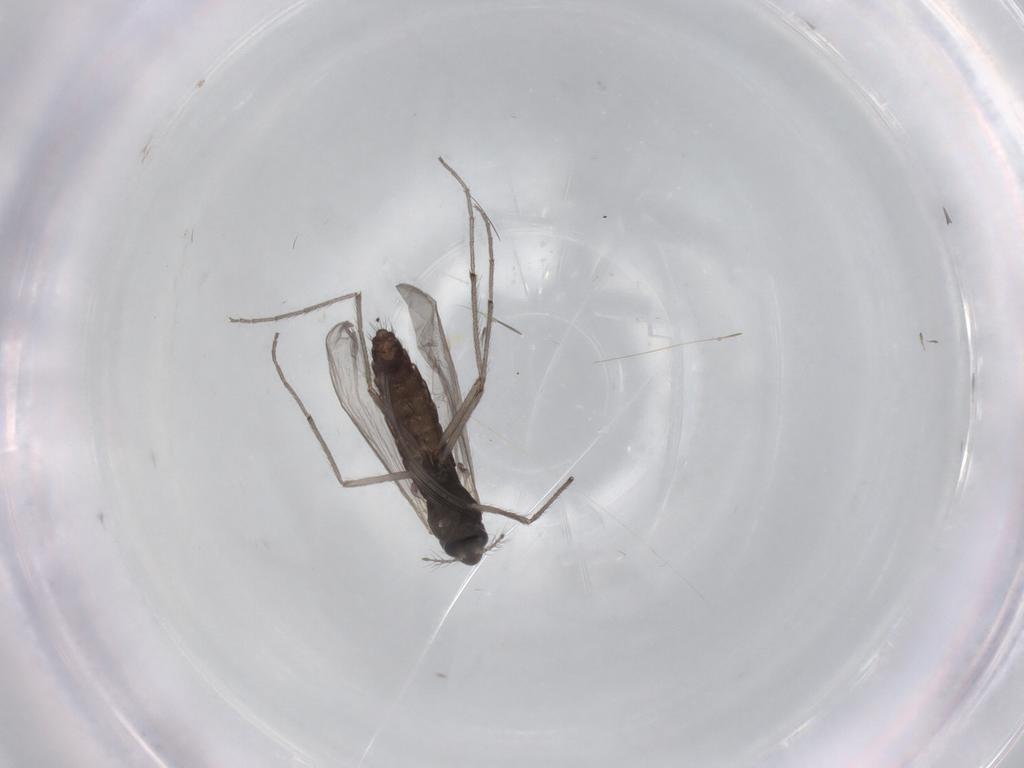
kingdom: Animalia
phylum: Arthropoda
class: Insecta
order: Diptera
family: Chironomidae
